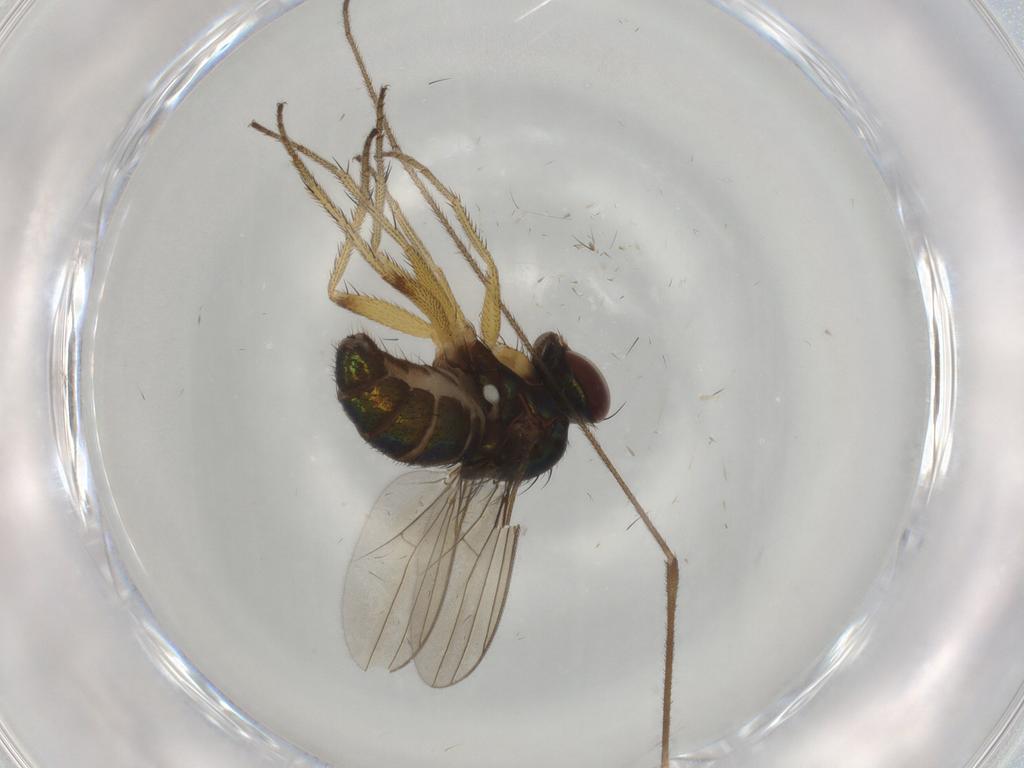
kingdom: Animalia
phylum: Arthropoda
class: Insecta
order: Diptera
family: Dolichopodidae
